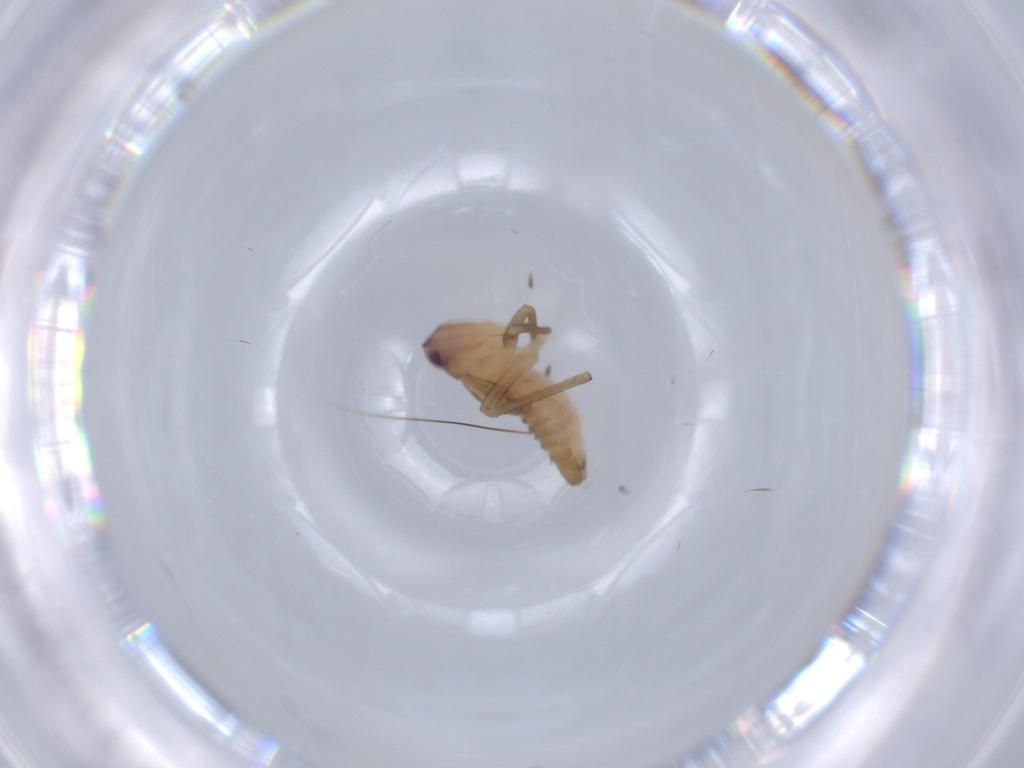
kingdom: Animalia
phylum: Arthropoda
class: Insecta
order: Hemiptera
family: Cicadellidae
